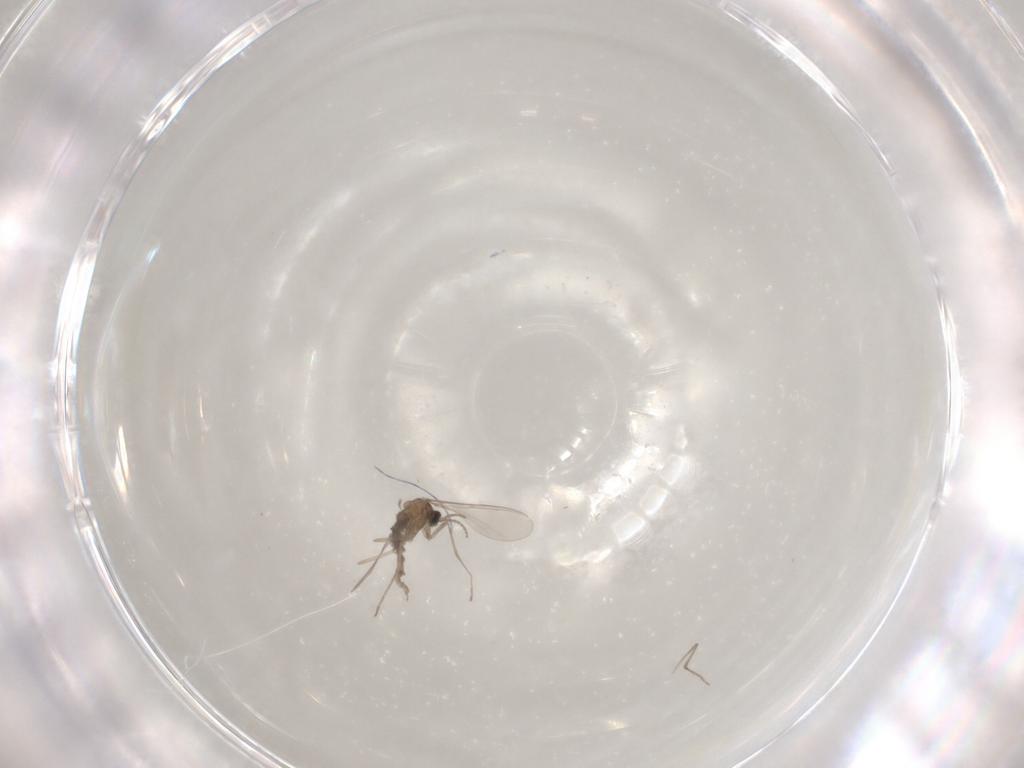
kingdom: Animalia
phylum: Arthropoda
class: Insecta
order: Diptera
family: Cecidomyiidae
